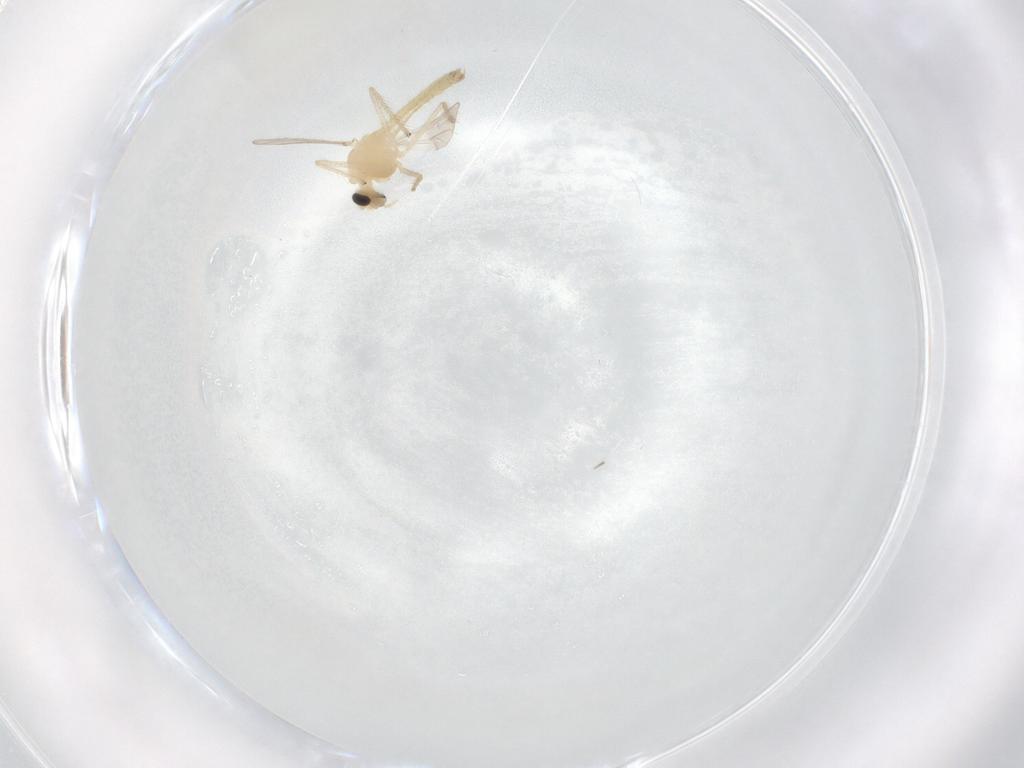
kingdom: Animalia
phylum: Arthropoda
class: Insecta
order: Diptera
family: Chironomidae
